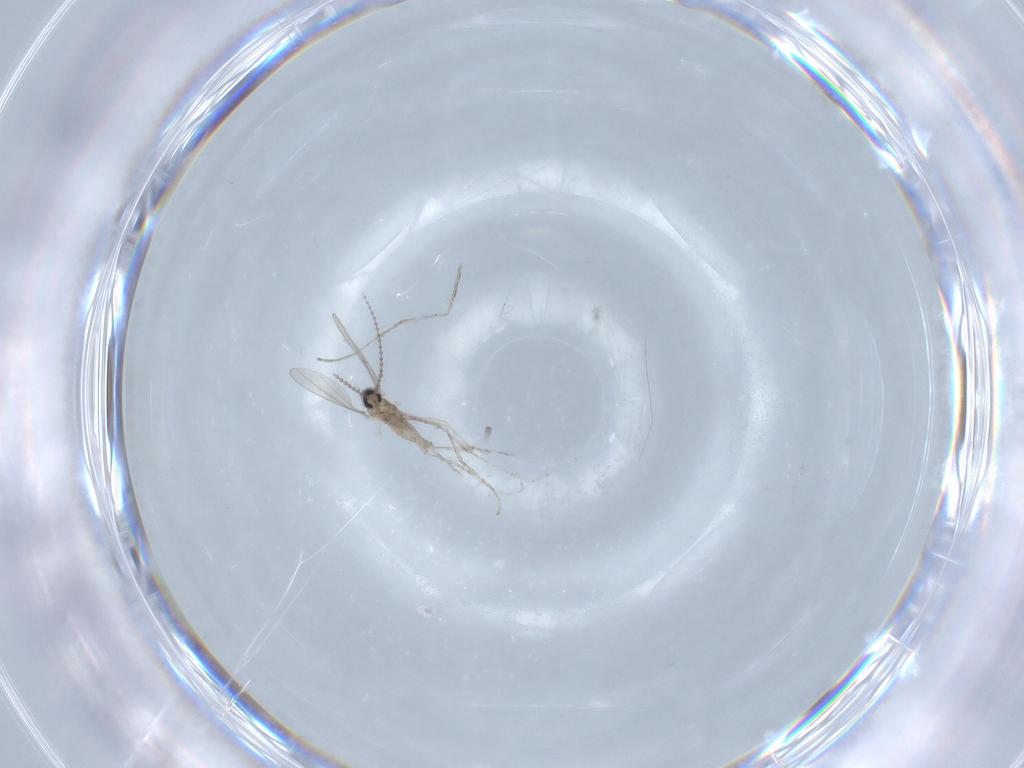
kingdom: Animalia
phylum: Arthropoda
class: Insecta
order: Diptera
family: Cecidomyiidae
